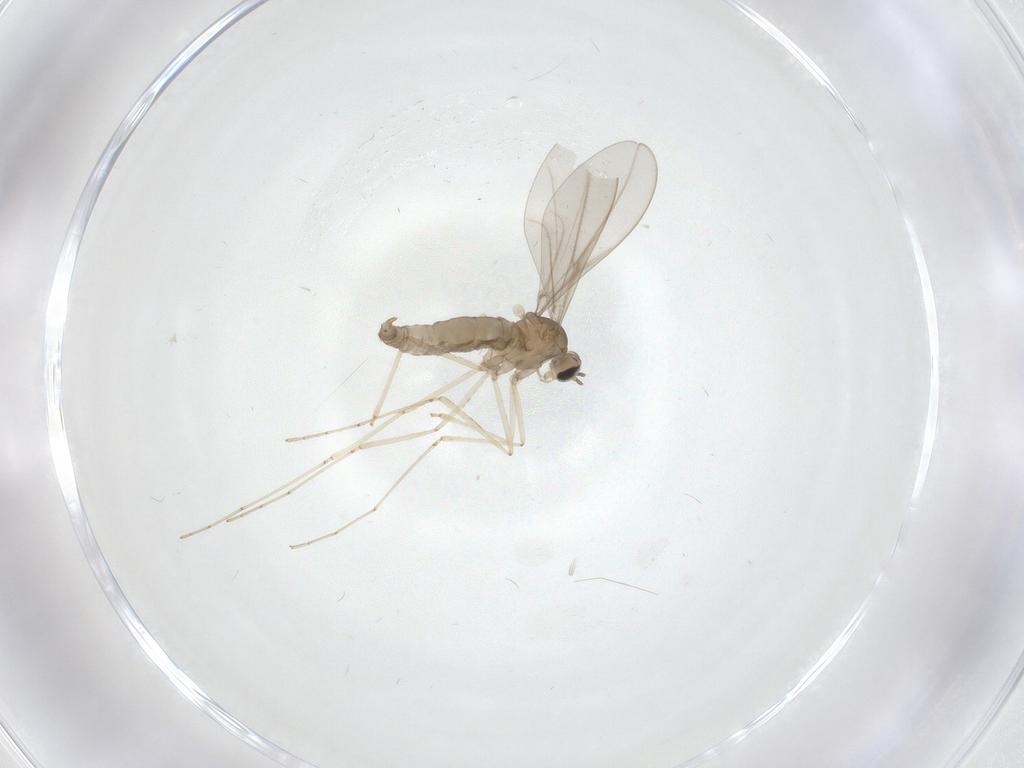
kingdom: Animalia
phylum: Arthropoda
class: Insecta
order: Diptera
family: Cecidomyiidae
